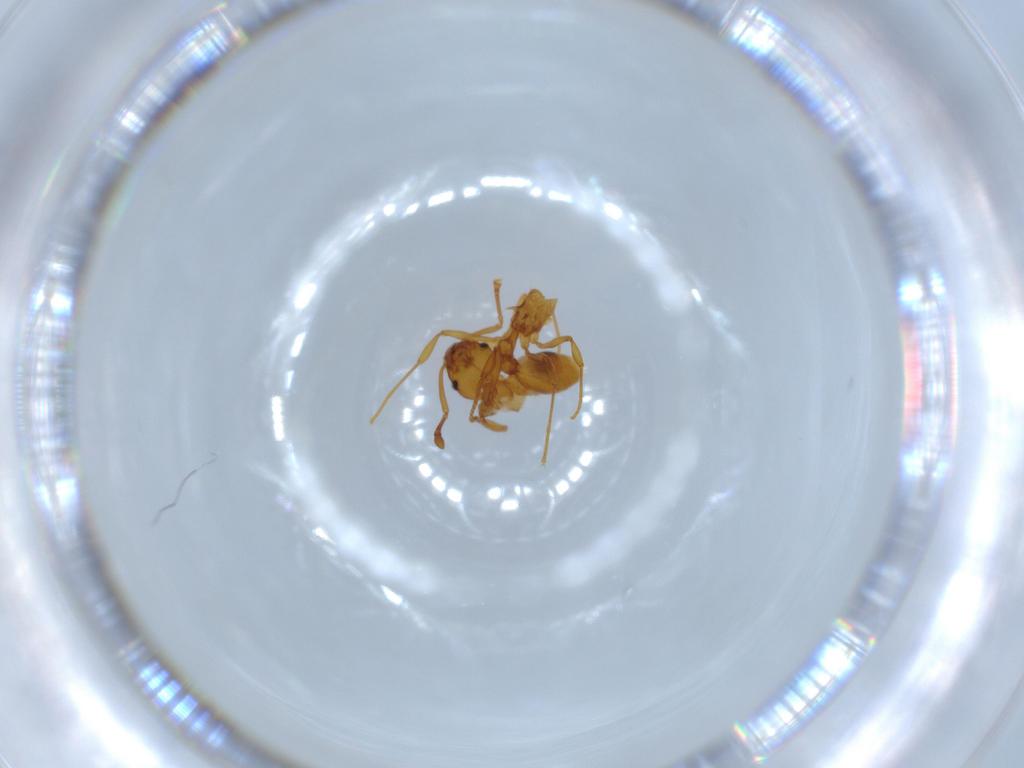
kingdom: Animalia
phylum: Arthropoda
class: Insecta
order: Hymenoptera
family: Formicidae
